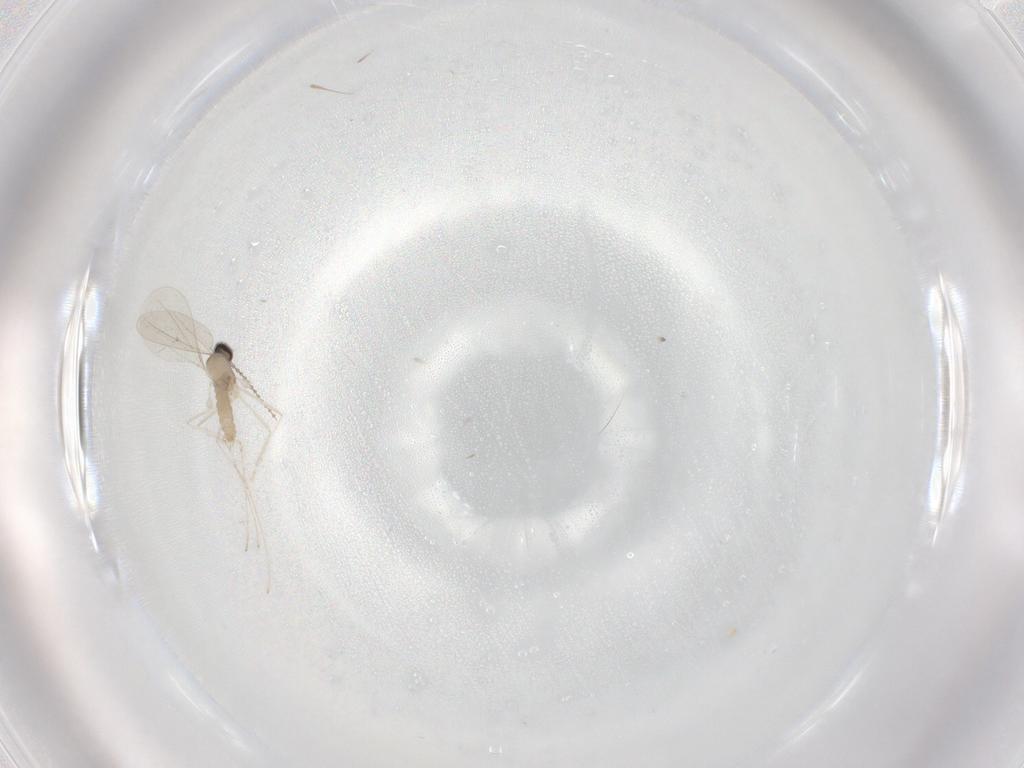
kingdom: Animalia
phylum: Arthropoda
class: Insecta
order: Diptera
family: Cecidomyiidae
